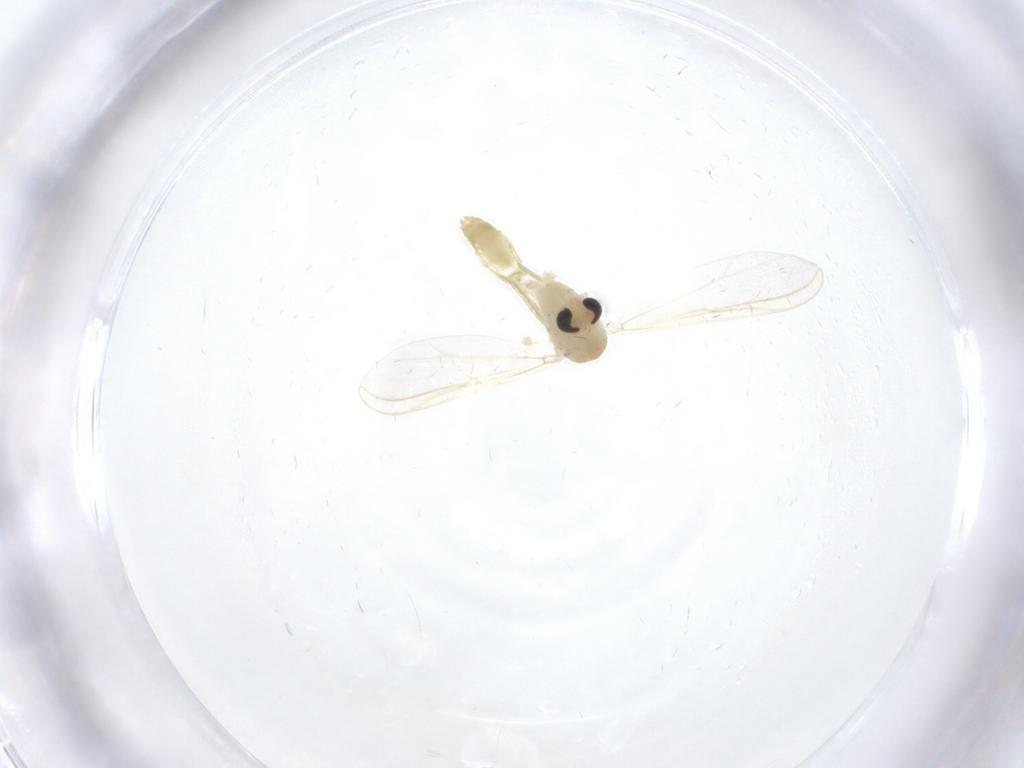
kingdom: Animalia
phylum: Arthropoda
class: Insecta
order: Diptera
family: Chironomidae
